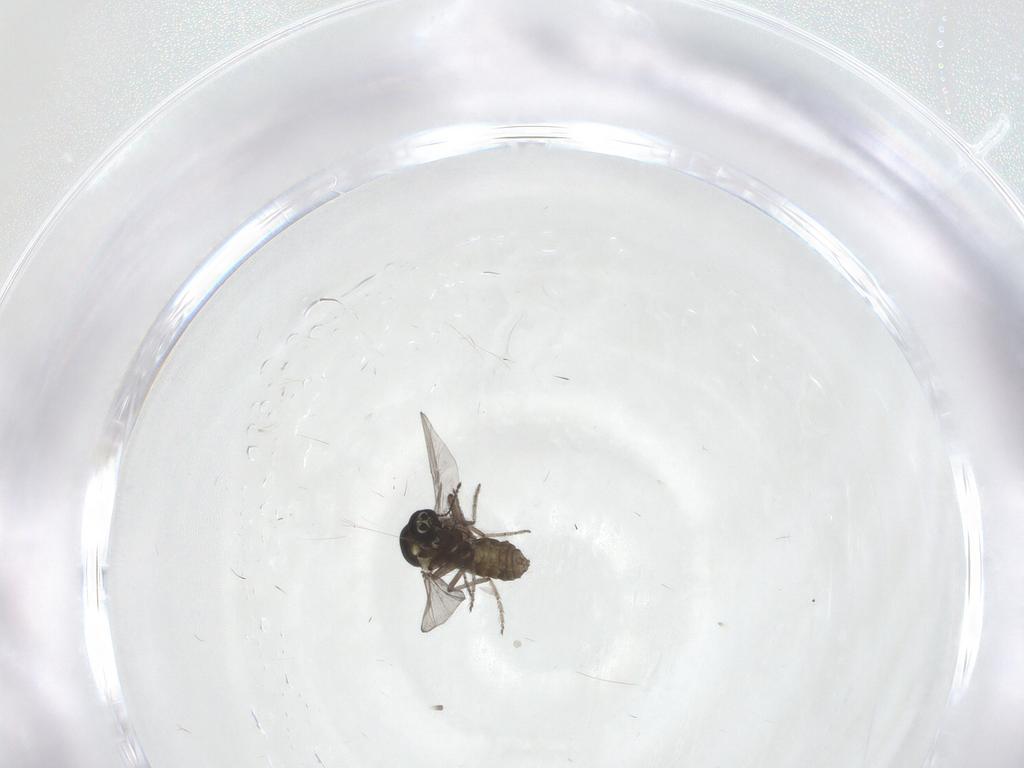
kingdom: Animalia
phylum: Arthropoda
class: Insecta
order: Diptera
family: Ceratopogonidae
